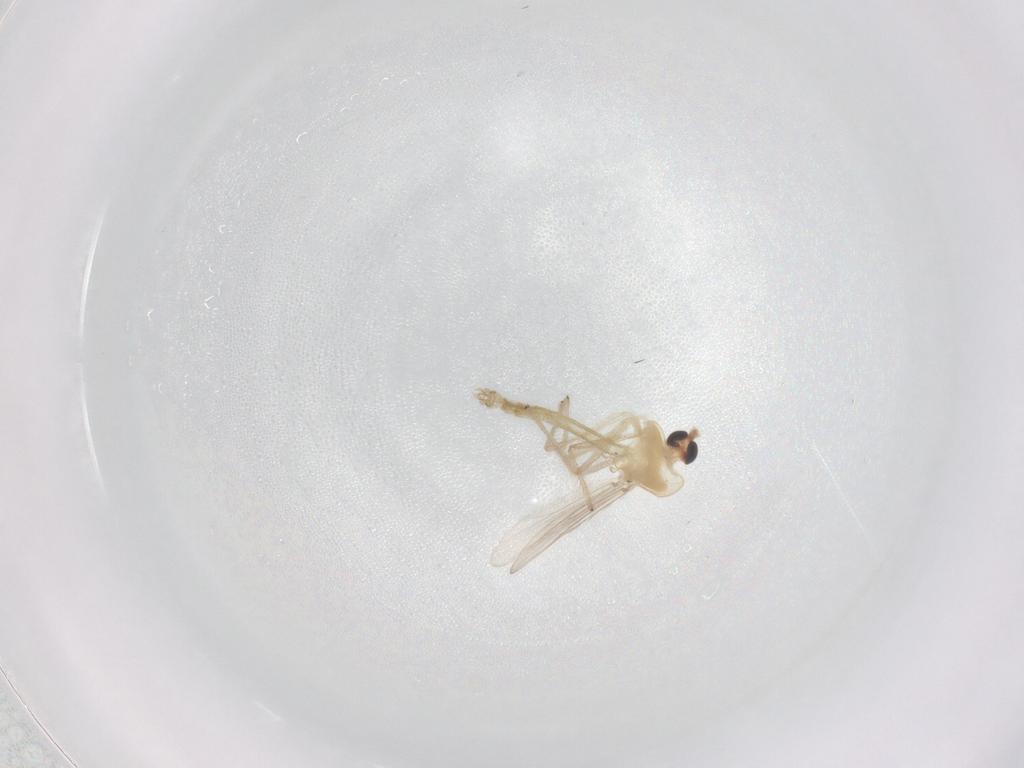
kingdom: Animalia
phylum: Arthropoda
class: Insecta
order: Diptera
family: Chironomidae
